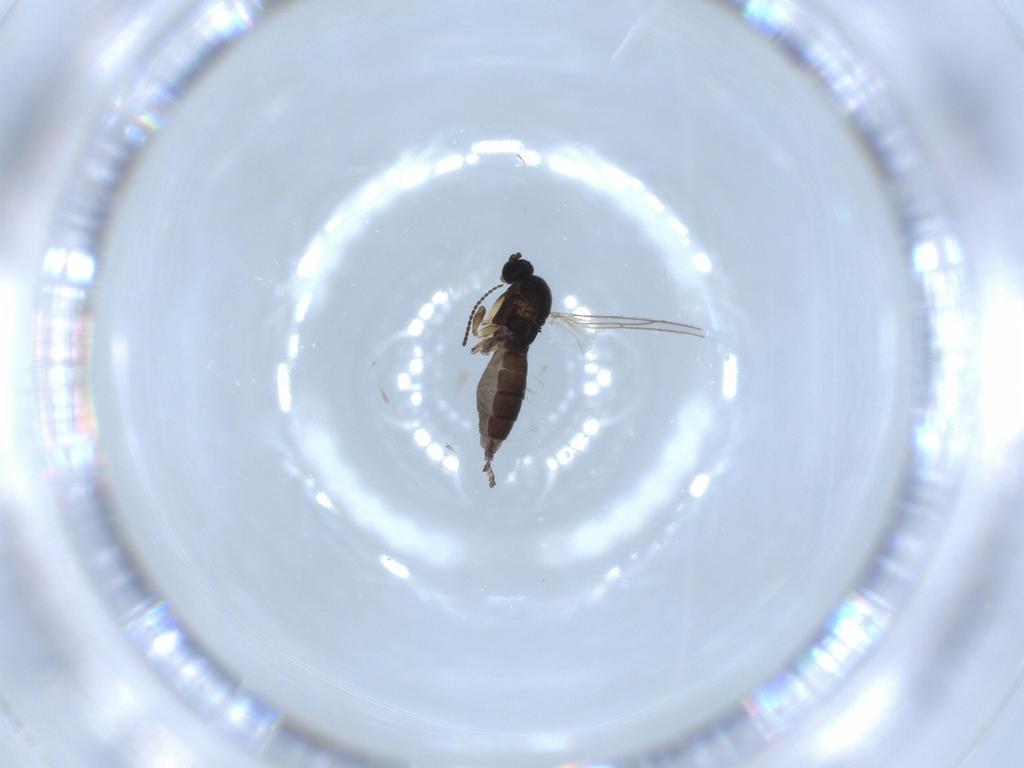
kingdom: Animalia
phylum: Arthropoda
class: Insecta
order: Diptera
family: Sciaridae
